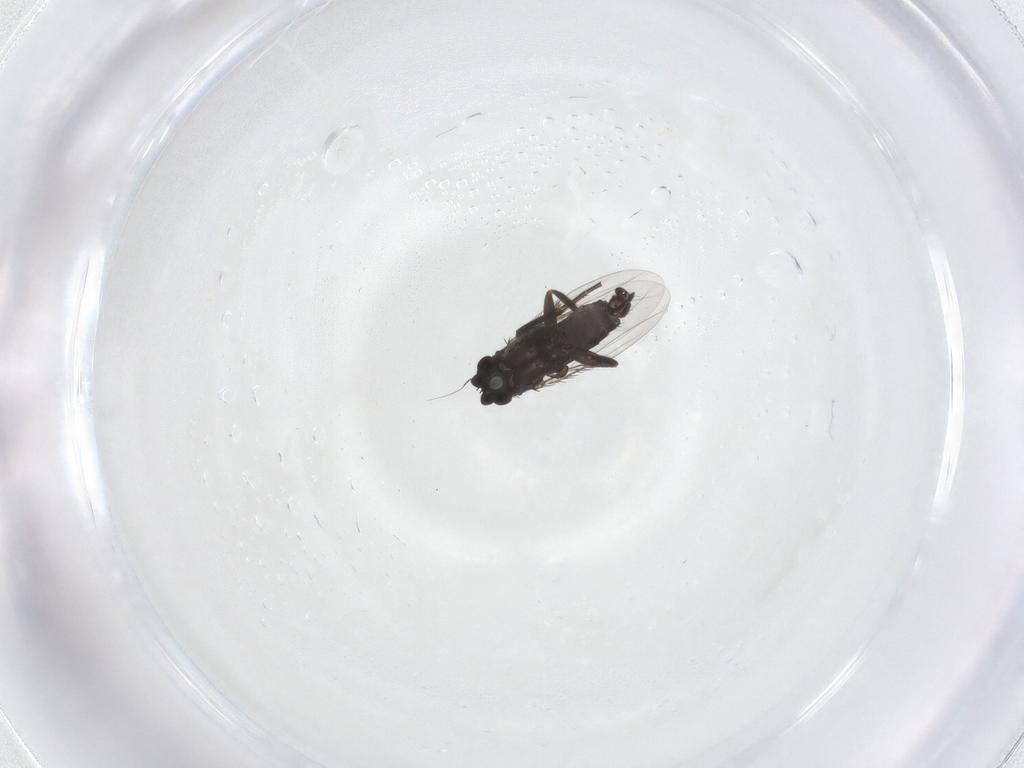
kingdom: Animalia
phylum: Arthropoda
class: Insecta
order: Diptera
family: Chironomidae
